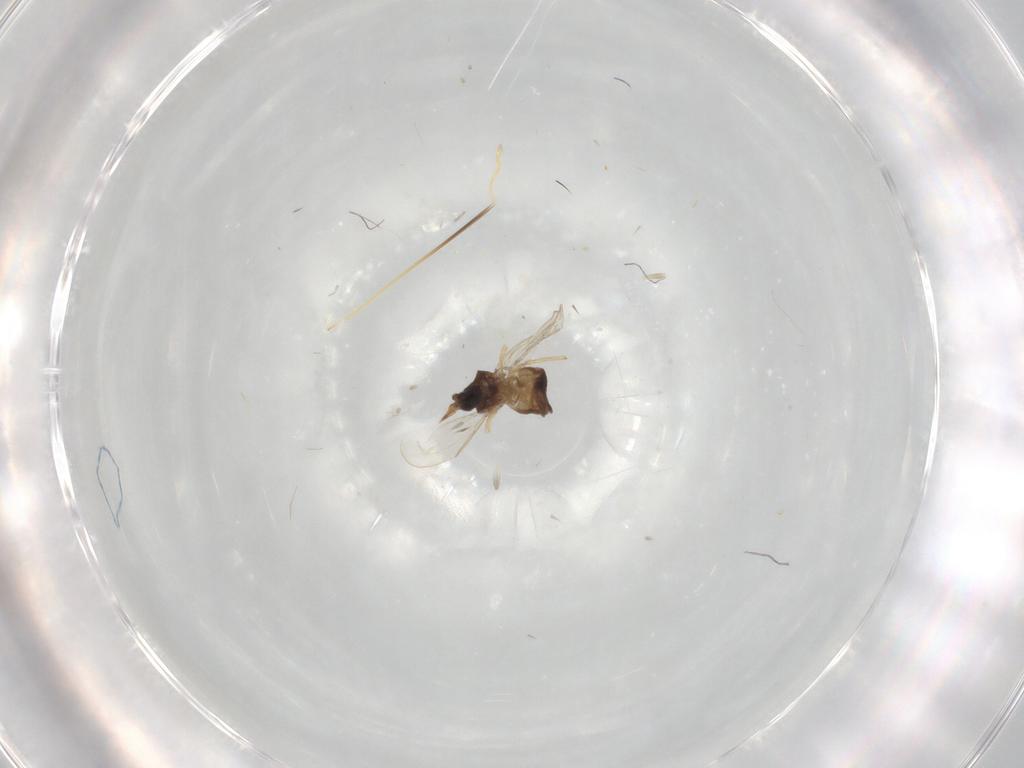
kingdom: Animalia
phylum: Arthropoda
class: Insecta
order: Diptera
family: Ceratopogonidae
